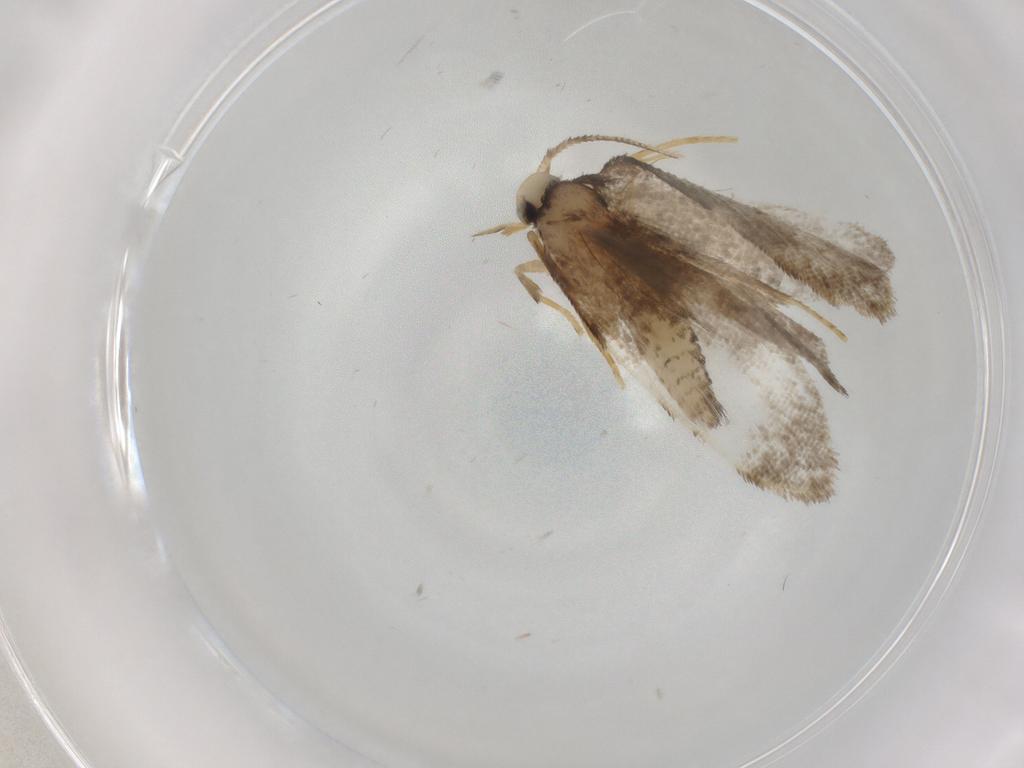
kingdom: Animalia
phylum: Arthropoda
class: Insecta
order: Lepidoptera
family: Psychidae
